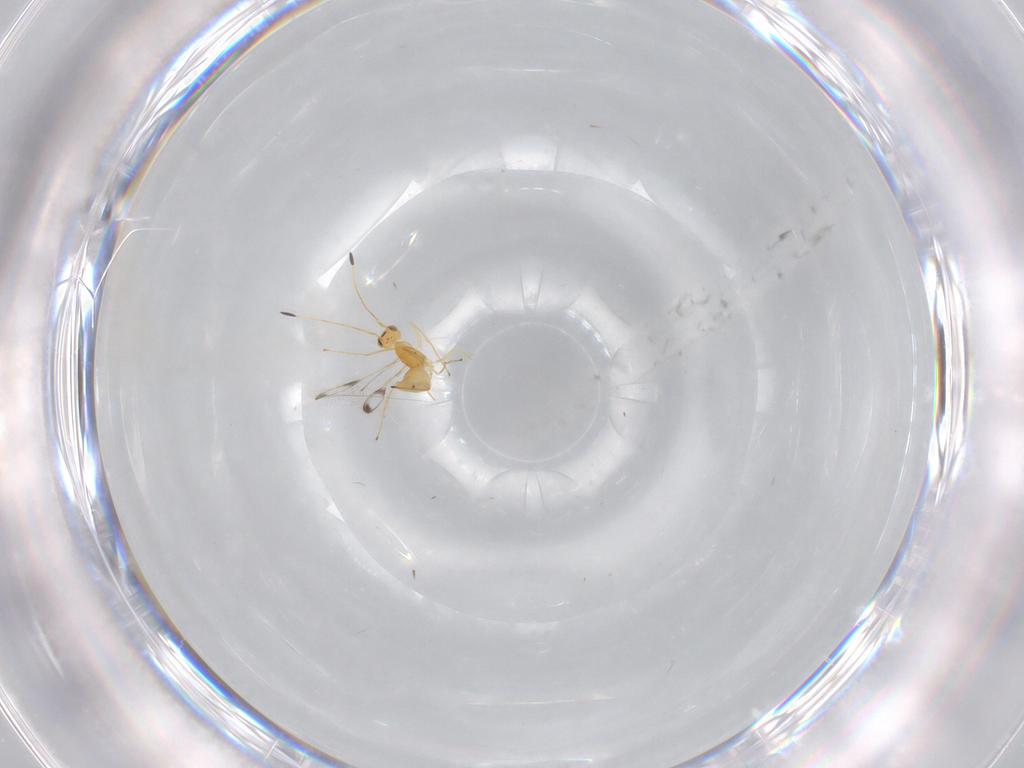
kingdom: Animalia
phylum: Arthropoda
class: Insecta
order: Hymenoptera
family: Mymaridae
